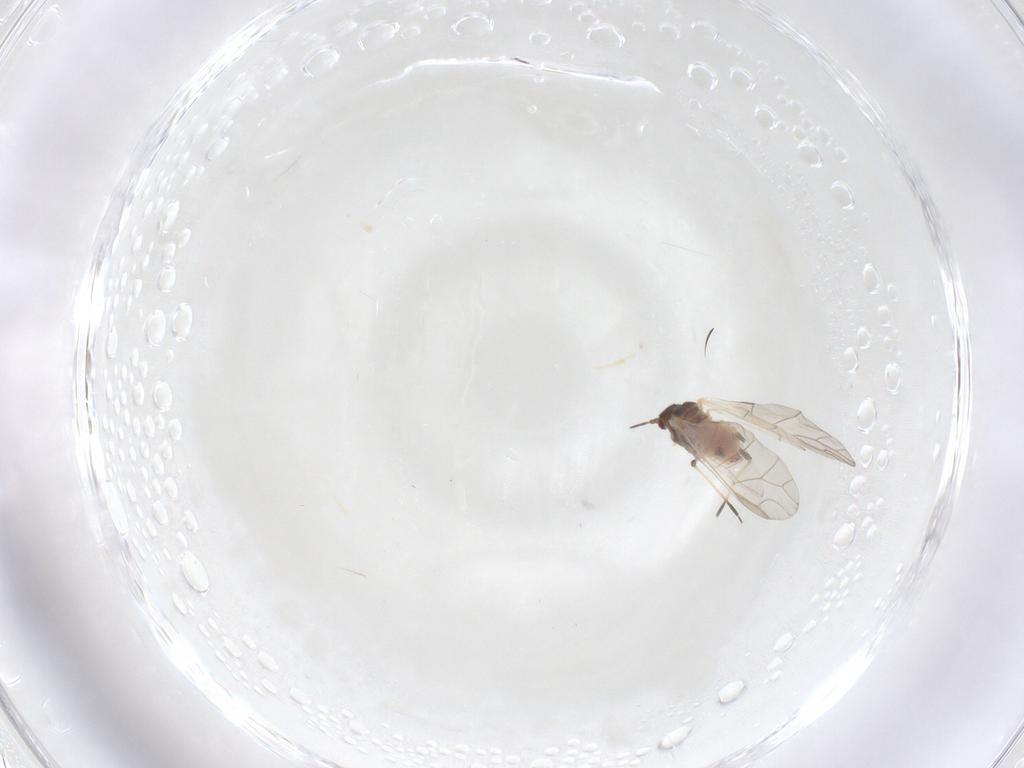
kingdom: Animalia
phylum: Arthropoda
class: Insecta
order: Hemiptera
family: Aphididae
